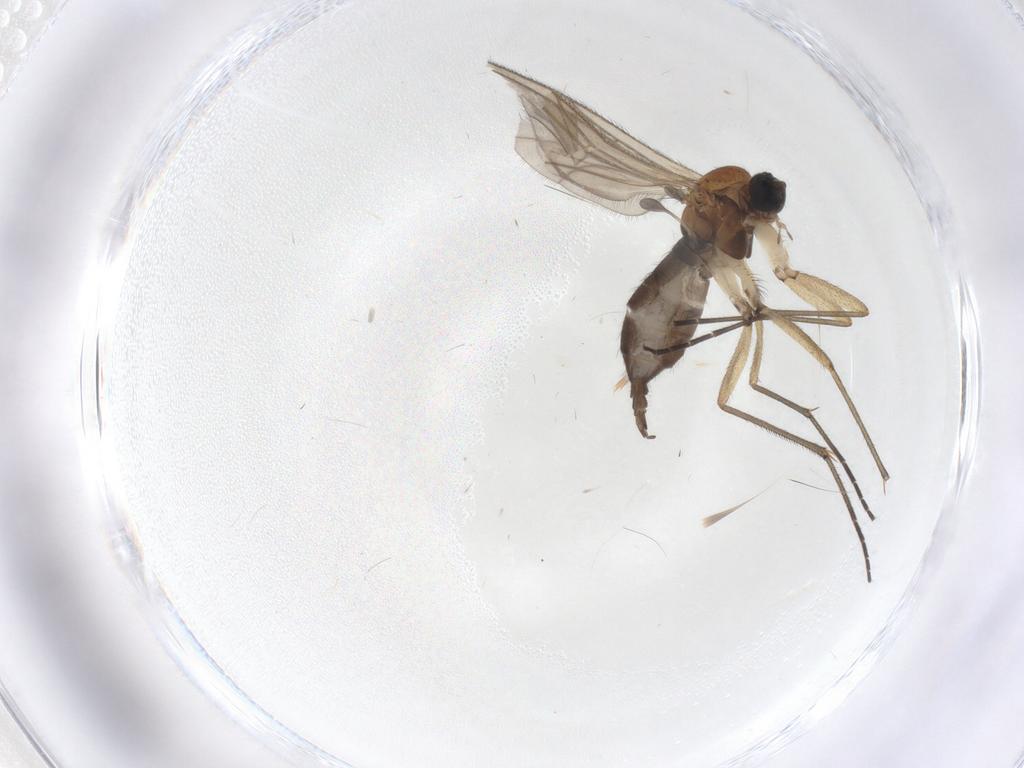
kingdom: Animalia
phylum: Arthropoda
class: Insecta
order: Diptera
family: Sciaridae
